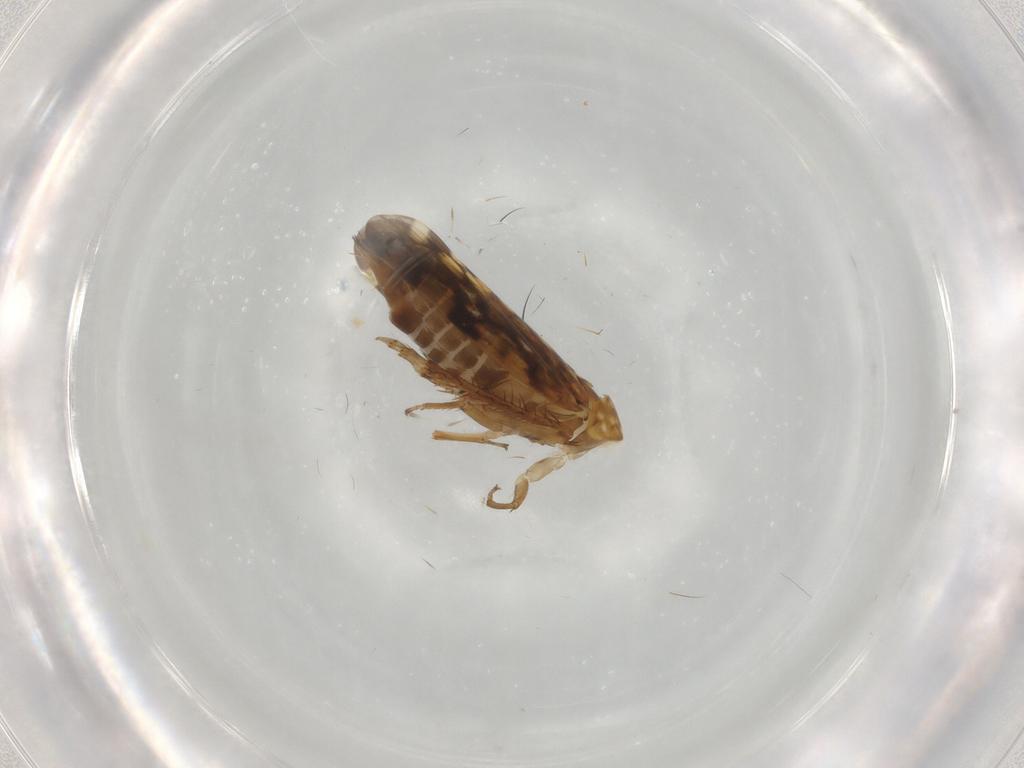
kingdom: Animalia
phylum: Arthropoda
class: Insecta
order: Hemiptera
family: Cicadellidae
